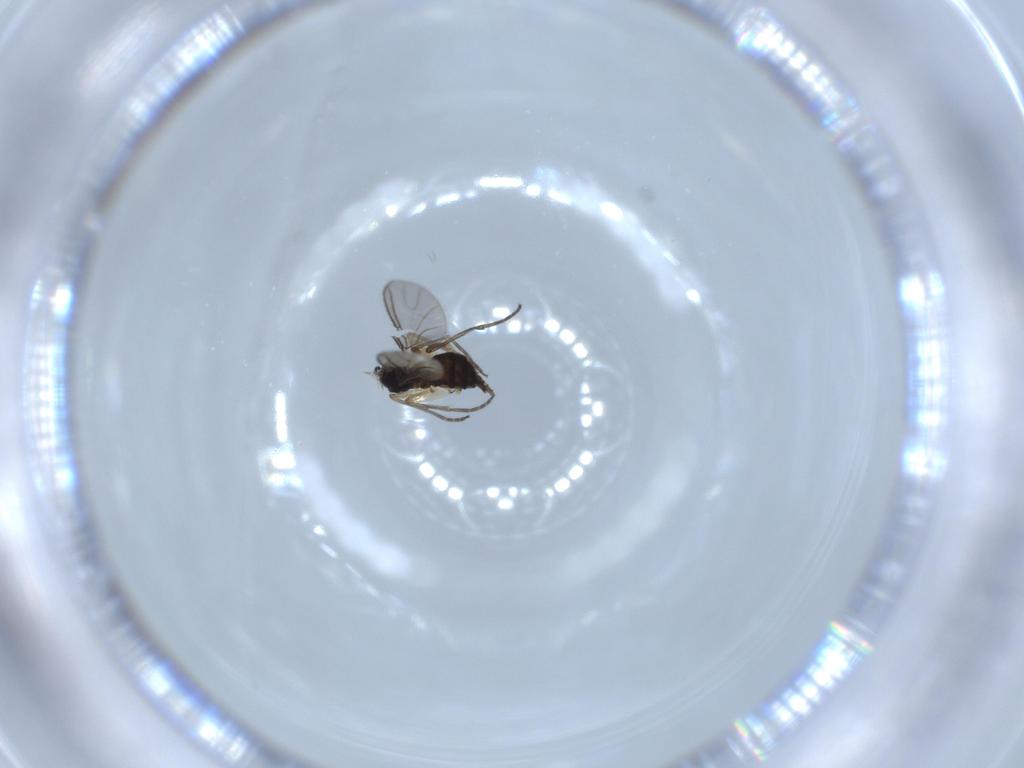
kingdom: Animalia
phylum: Arthropoda
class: Insecta
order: Diptera
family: Sciaridae
